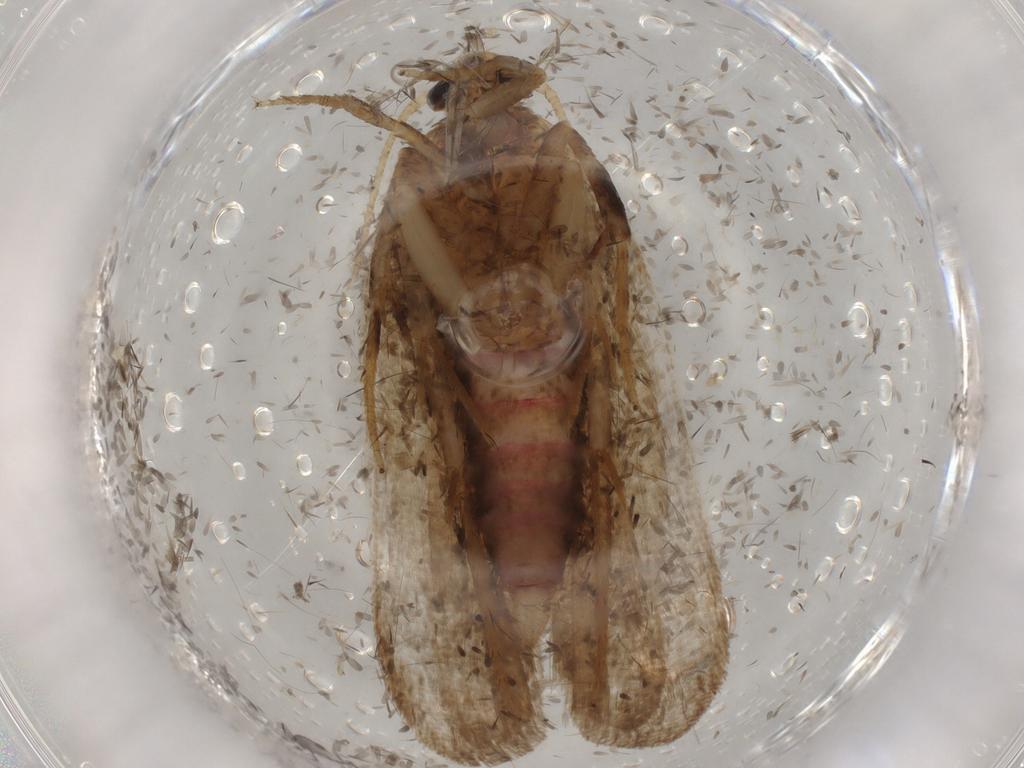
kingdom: Animalia
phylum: Arthropoda
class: Insecta
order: Lepidoptera
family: Autostichidae
